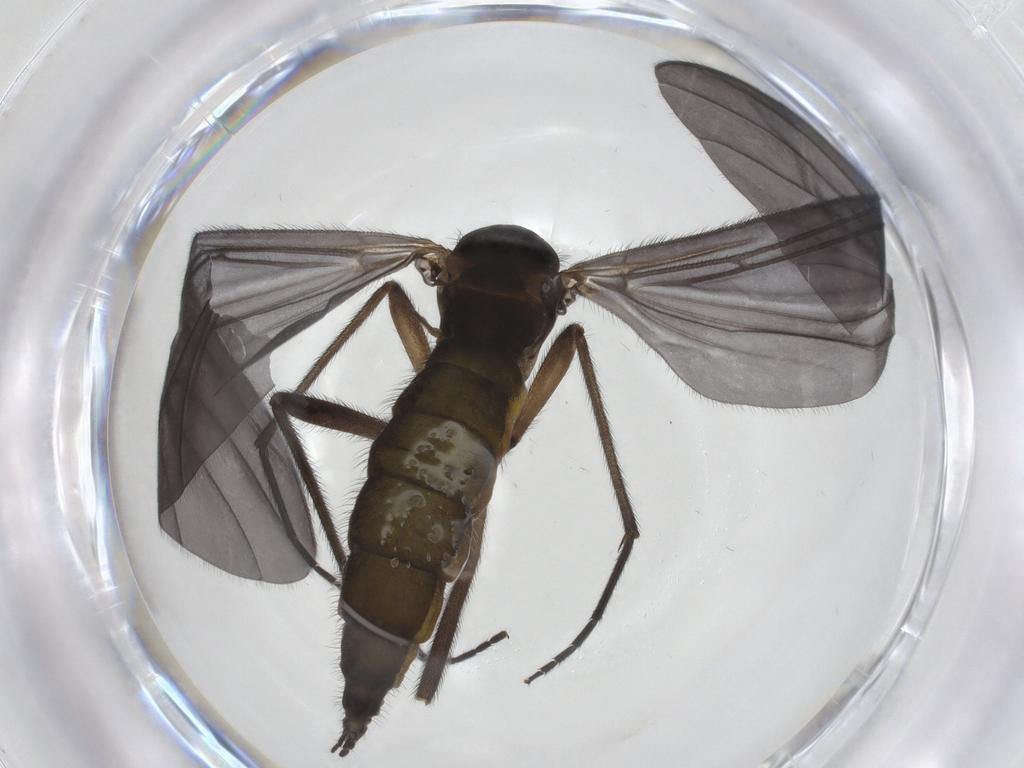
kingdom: Animalia
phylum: Arthropoda
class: Insecta
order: Diptera
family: Sciaridae
